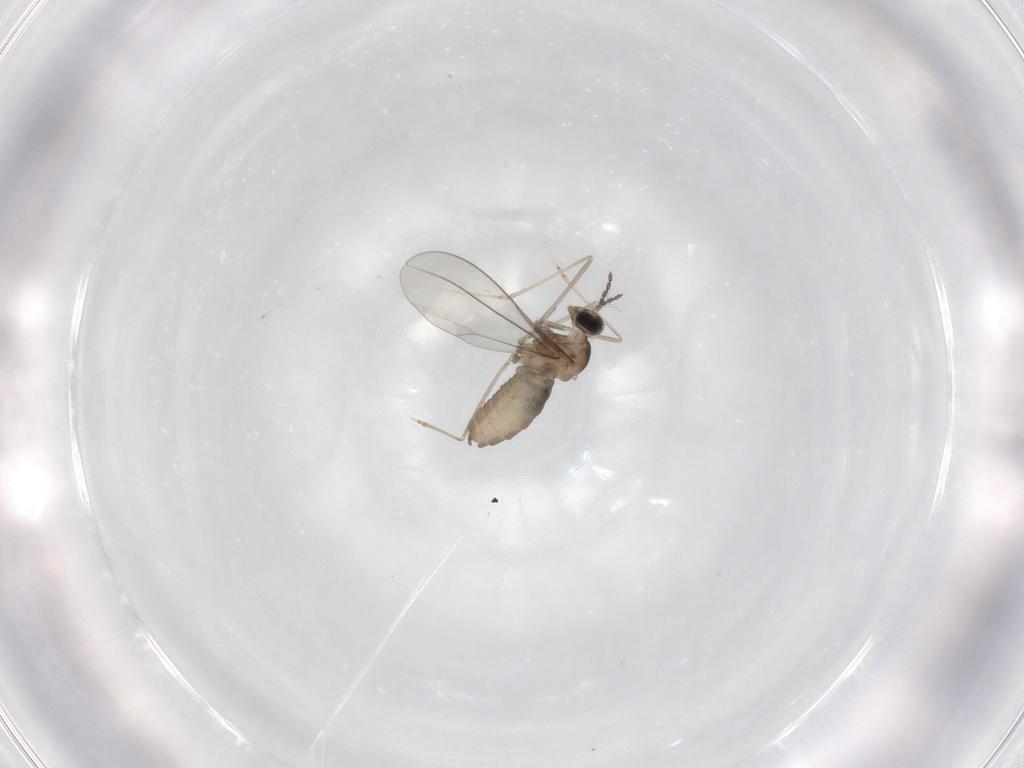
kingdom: Animalia
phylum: Arthropoda
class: Insecta
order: Diptera
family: Cecidomyiidae
